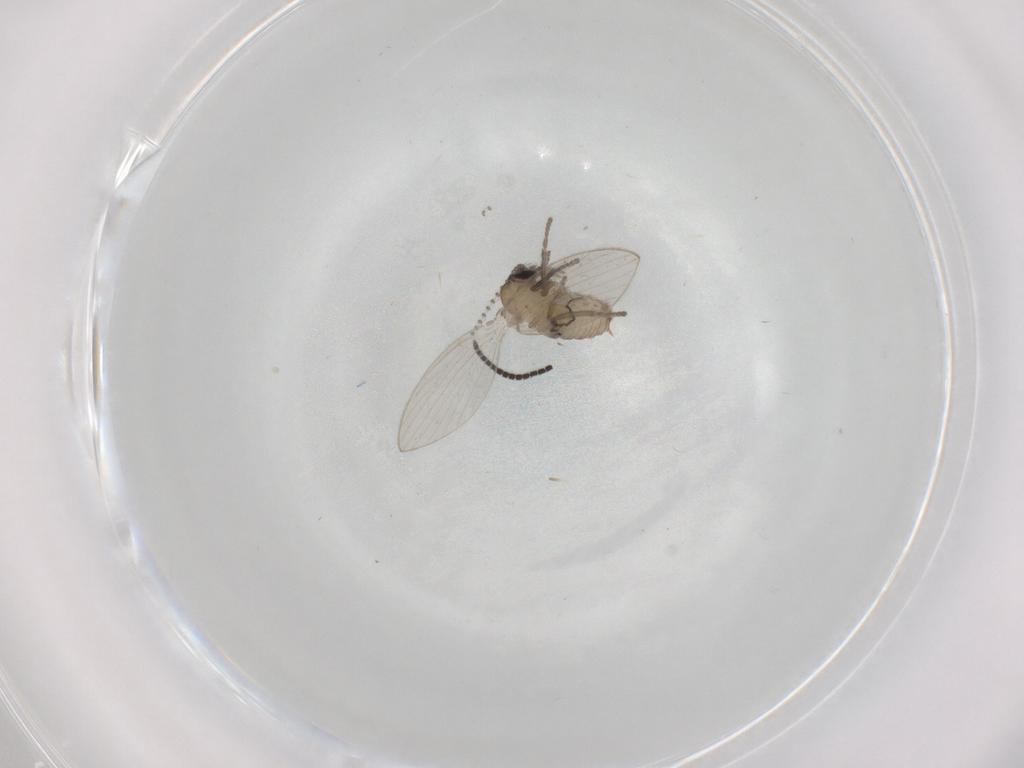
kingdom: Animalia
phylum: Arthropoda
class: Insecta
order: Diptera
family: Psychodidae
